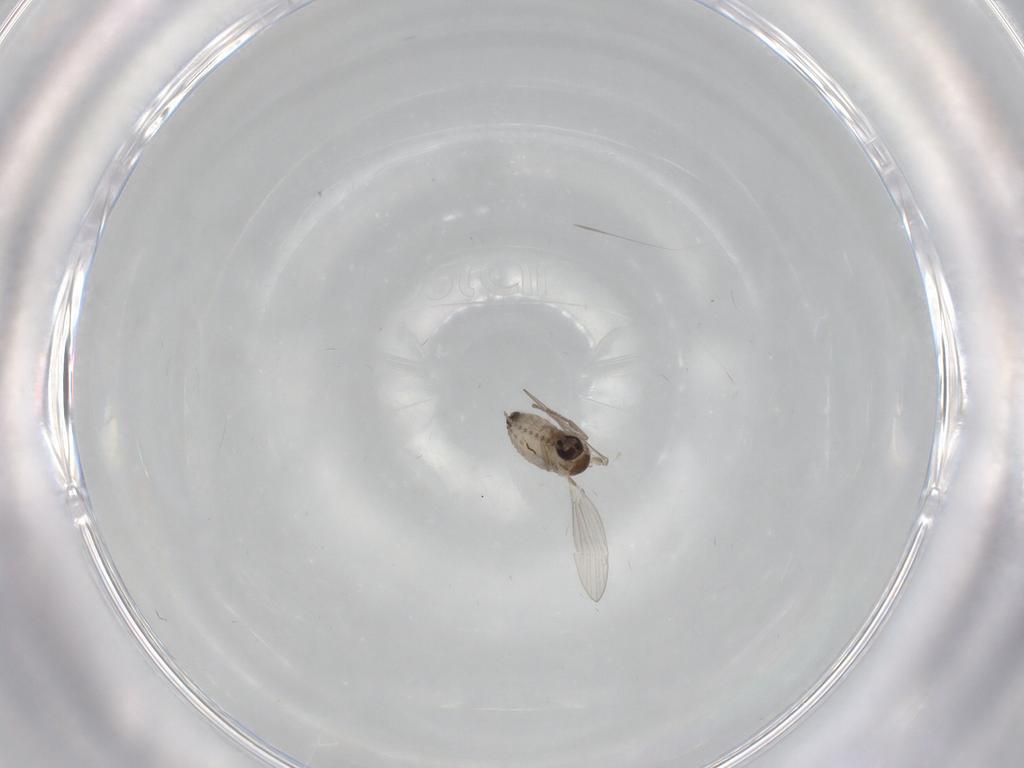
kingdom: Animalia
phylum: Arthropoda
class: Insecta
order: Diptera
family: Psychodidae
